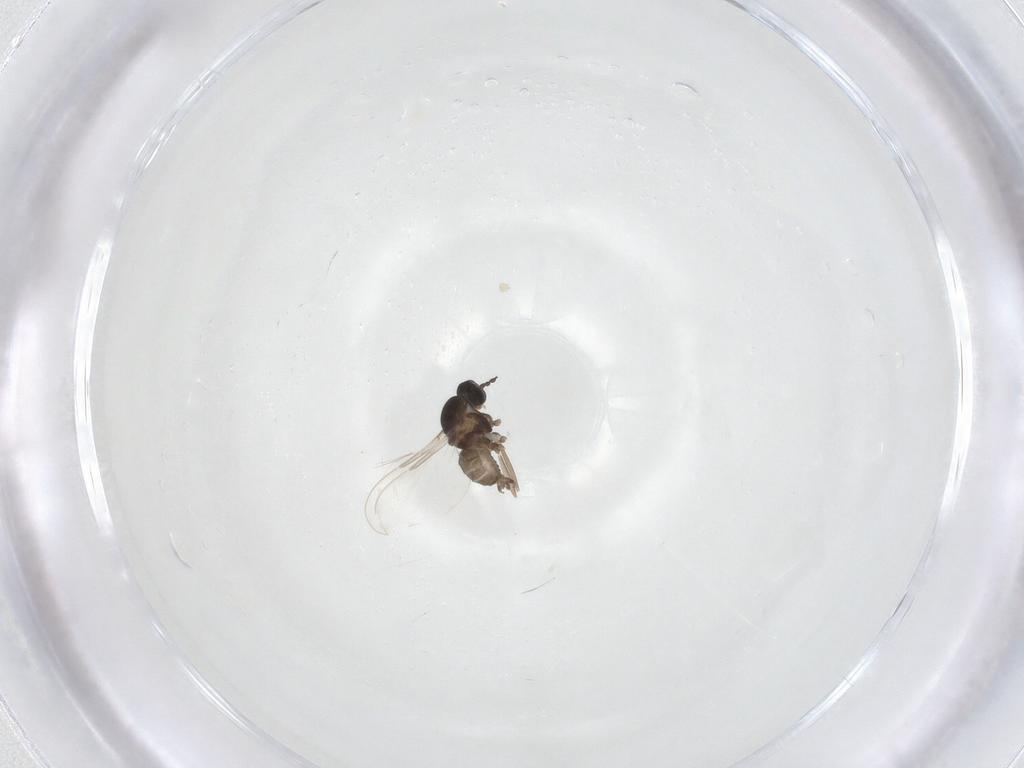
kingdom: Animalia
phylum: Arthropoda
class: Insecta
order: Diptera
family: Cecidomyiidae
